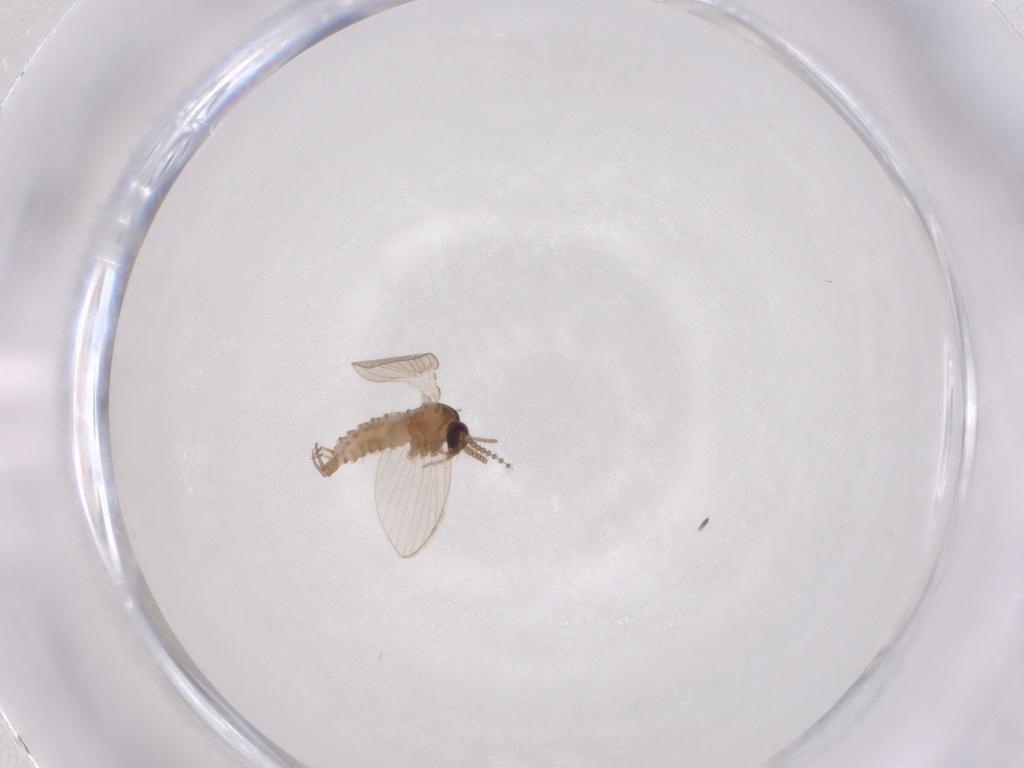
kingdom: Animalia
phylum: Arthropoda
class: Insecta
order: Diptera
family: Psychodidae
